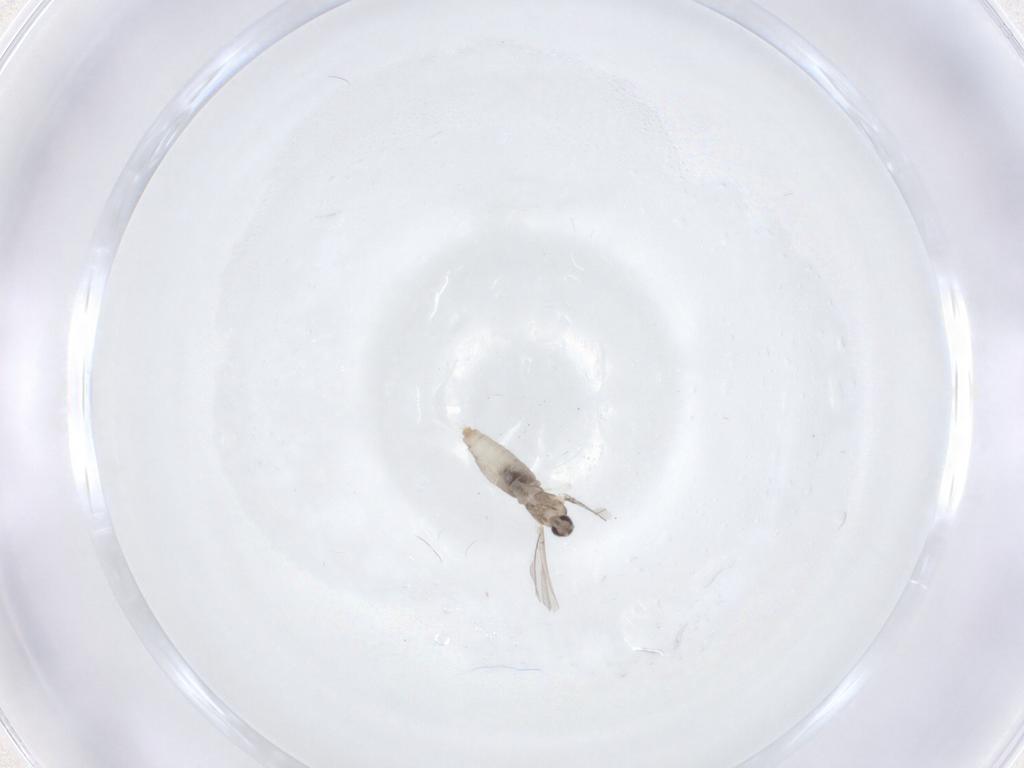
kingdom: Animalia
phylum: Arthropoda
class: Insecta
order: Diptera
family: Cecidomyiidae
